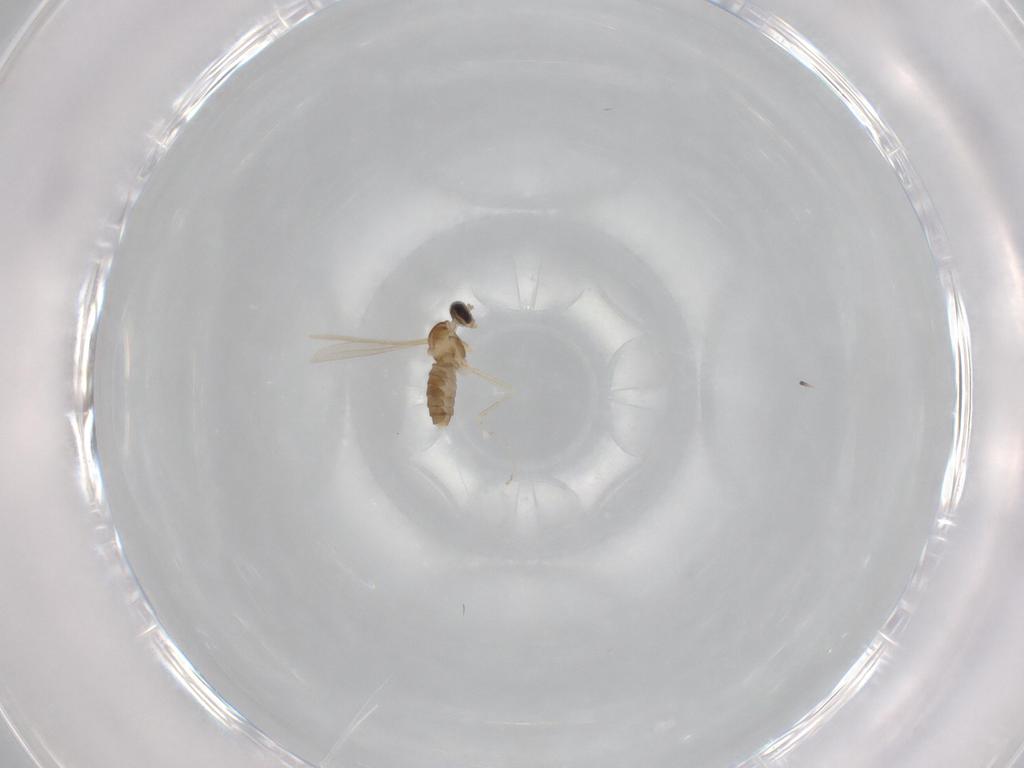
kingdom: Animalia
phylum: Arthropoda
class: Insecta
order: Diptera
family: Cecidomyiidae
